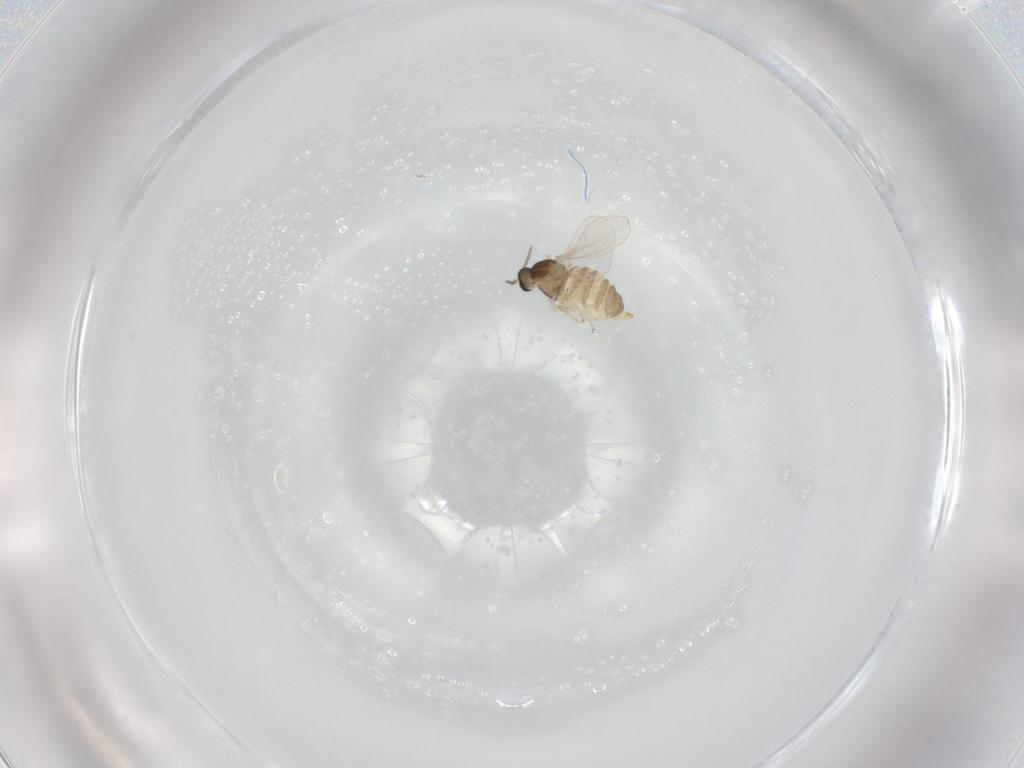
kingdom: Animalia
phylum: Arthropoda
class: Insecta
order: Diptera
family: Cecidomyiidae
